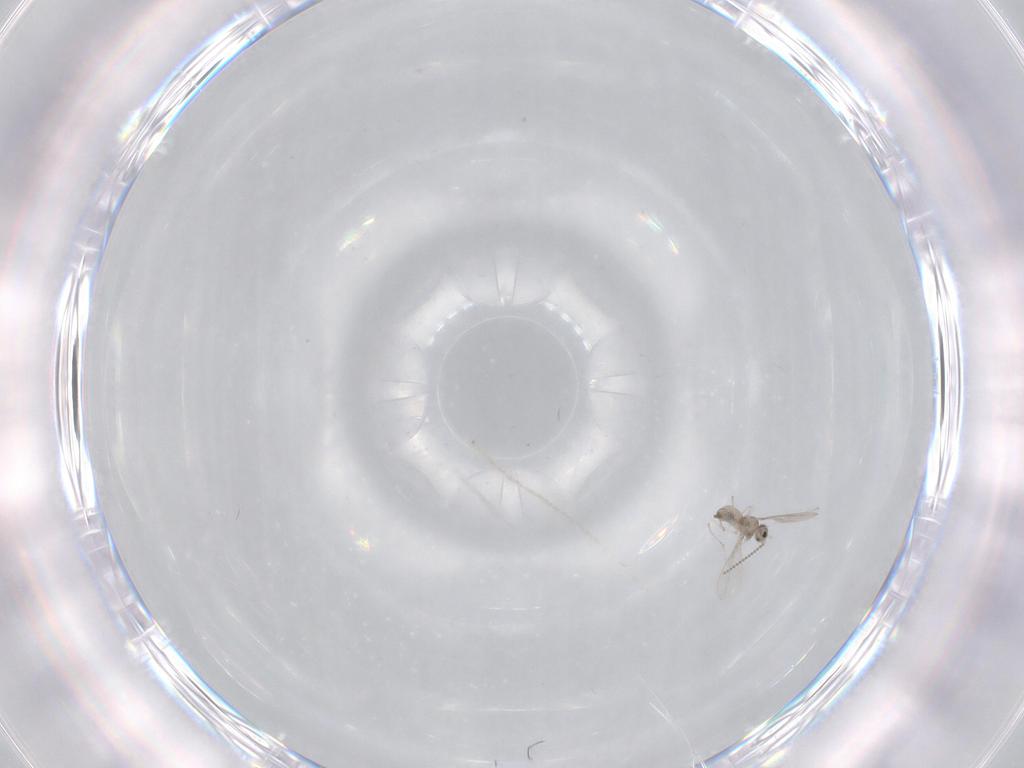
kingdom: Animalia
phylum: Arthropoda
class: Insecta
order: Diptera
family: Cecidomyiidae
